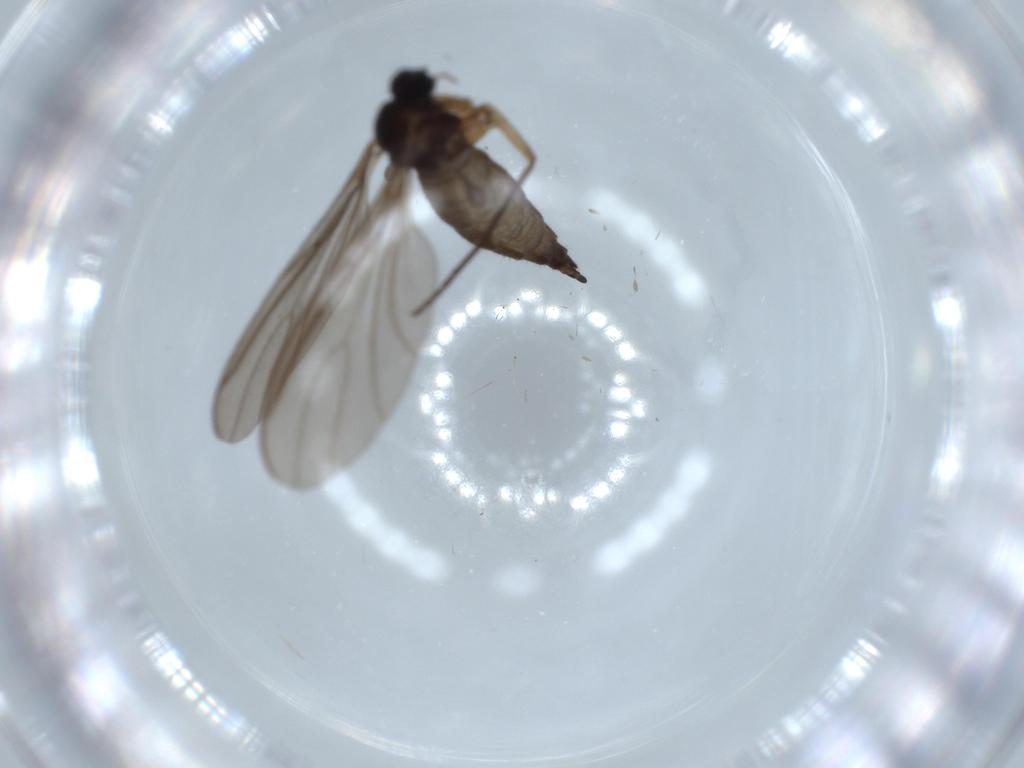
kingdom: Animalia
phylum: Arthropoda
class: Insecta
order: Diptera
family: Sciaridae
